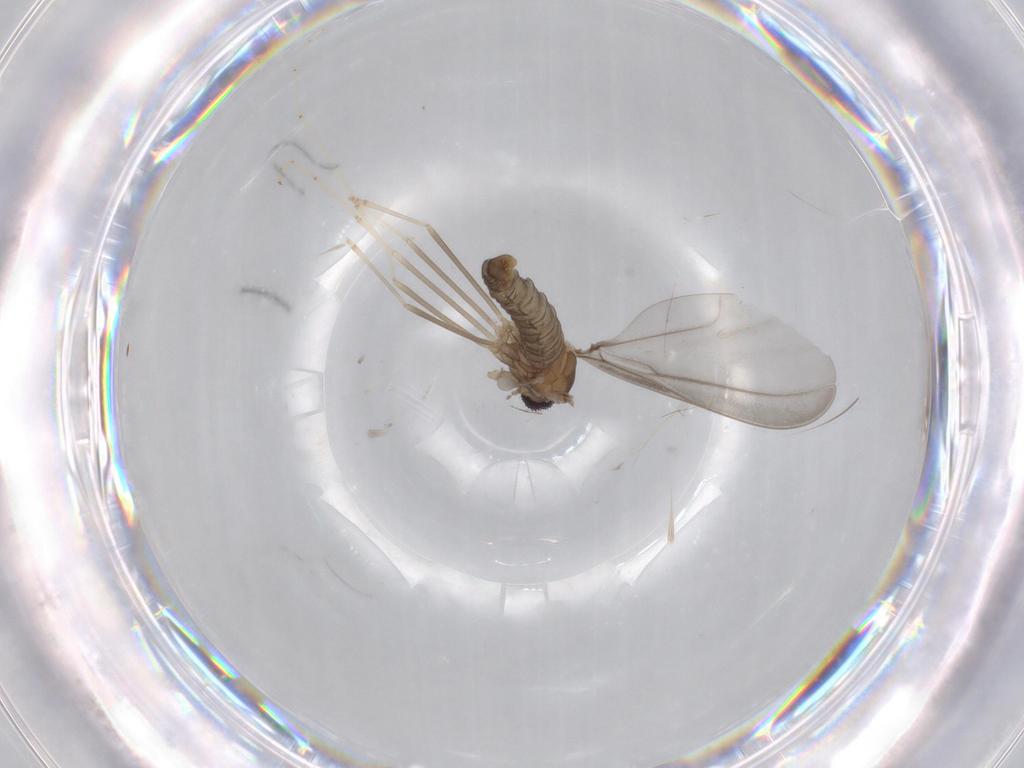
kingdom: Animalia
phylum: Arthropoda
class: Insecta
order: Diptera
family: Cecidomyiidae
